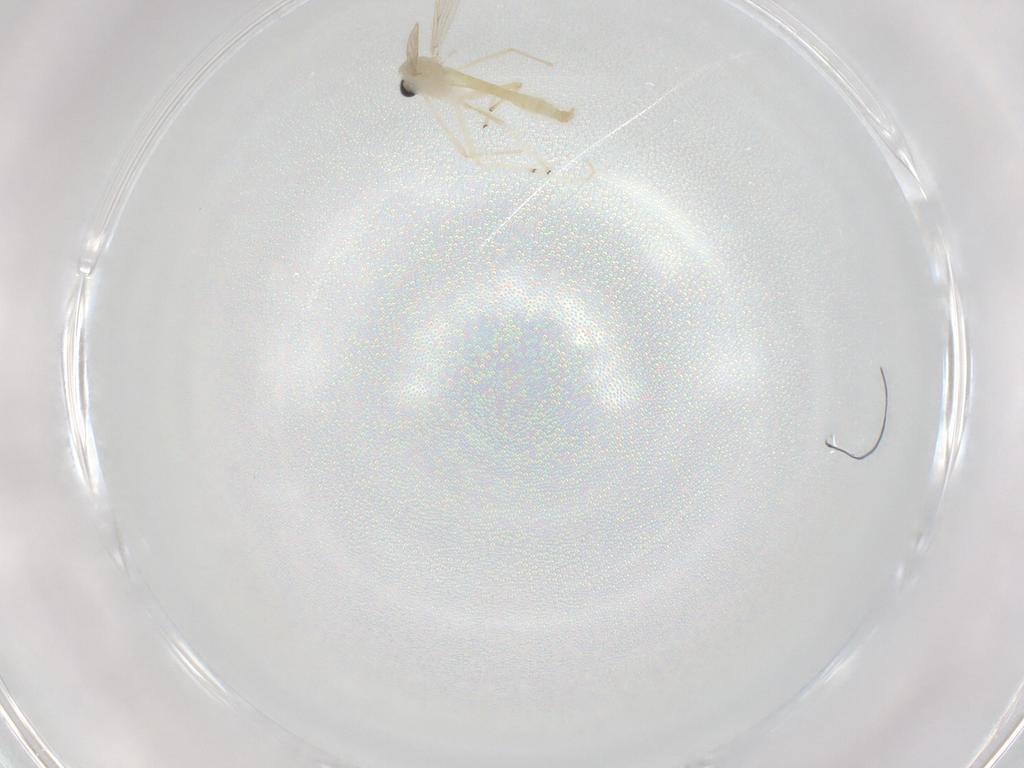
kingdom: Animalia
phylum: Arthropoda
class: Insecta
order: Diptera
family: Chironomidae
